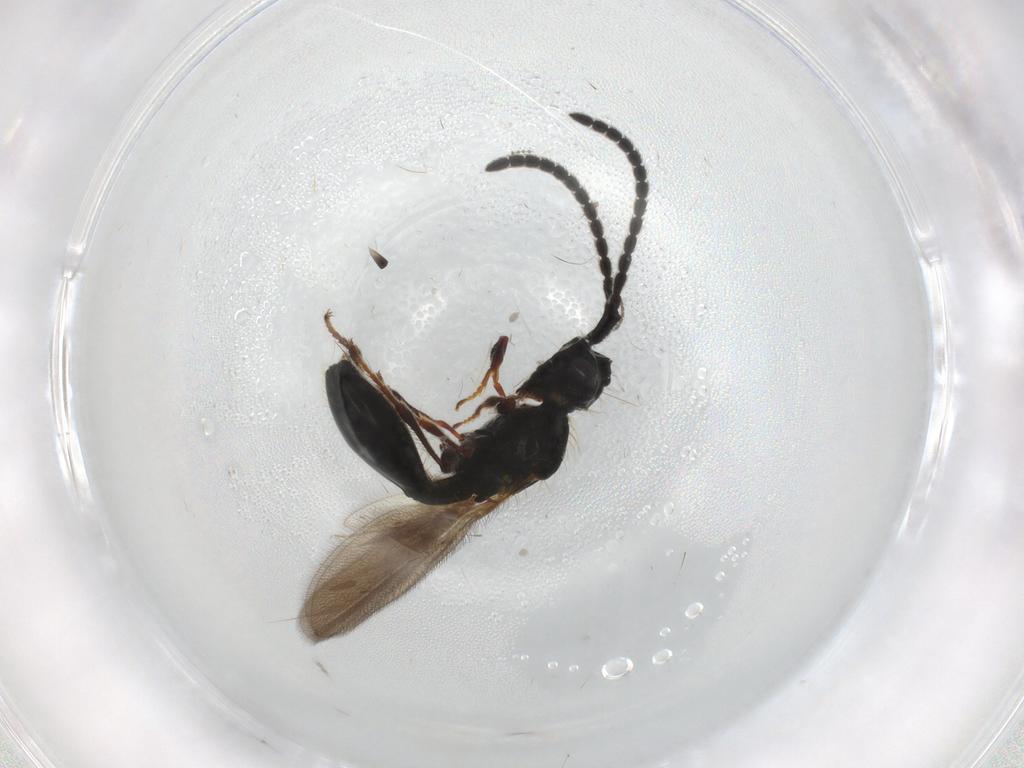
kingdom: Animalia
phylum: Arthropoda
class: Insecta
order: Hymenoptera
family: Diapriidae
